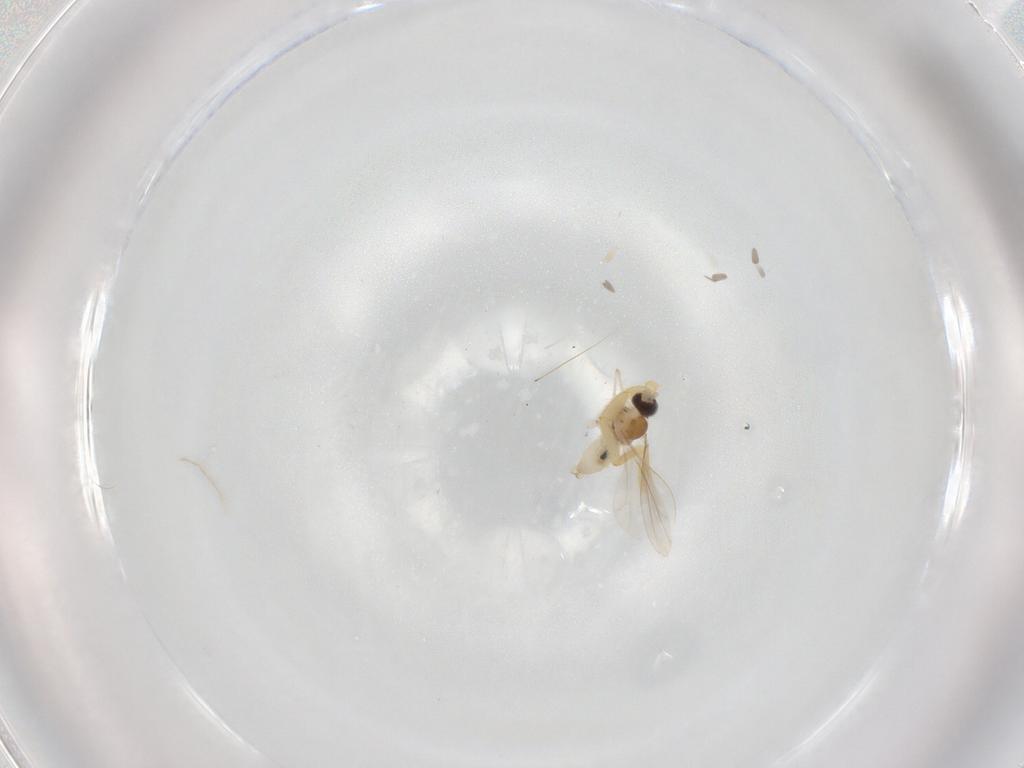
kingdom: Animalia
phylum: Arthropoda
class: Insecta
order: Diptera
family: Cecidomyiidae
